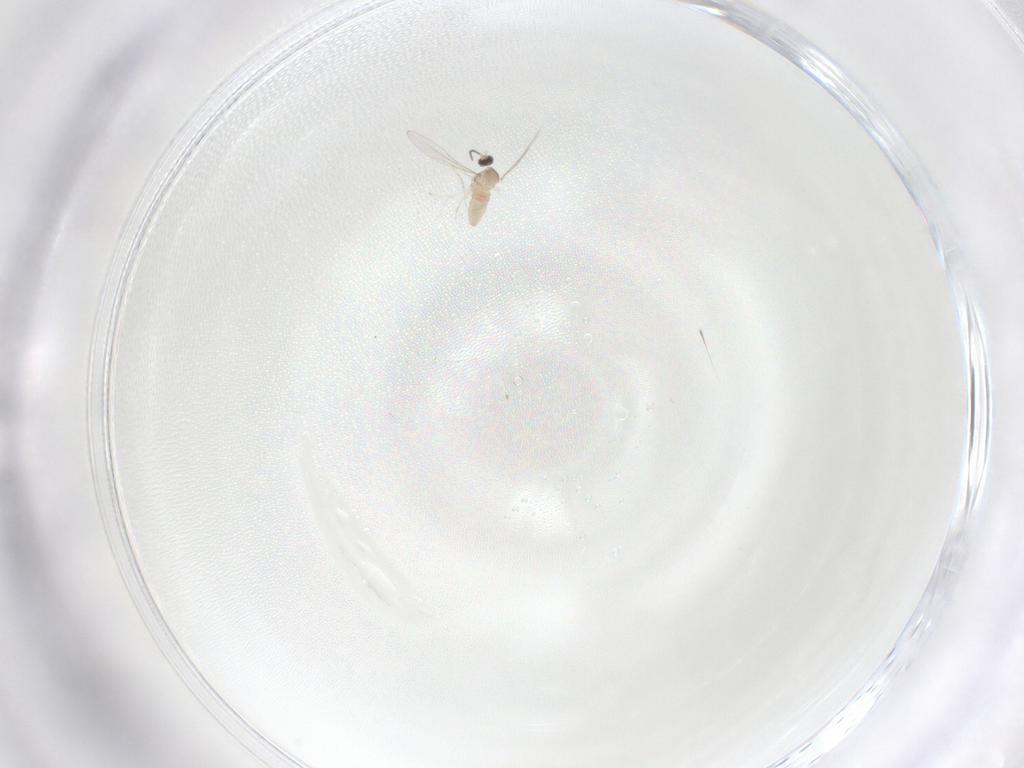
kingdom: Animalia
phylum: Arthropoda
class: Insecta
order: Diptera
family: Cecidomyiidae
